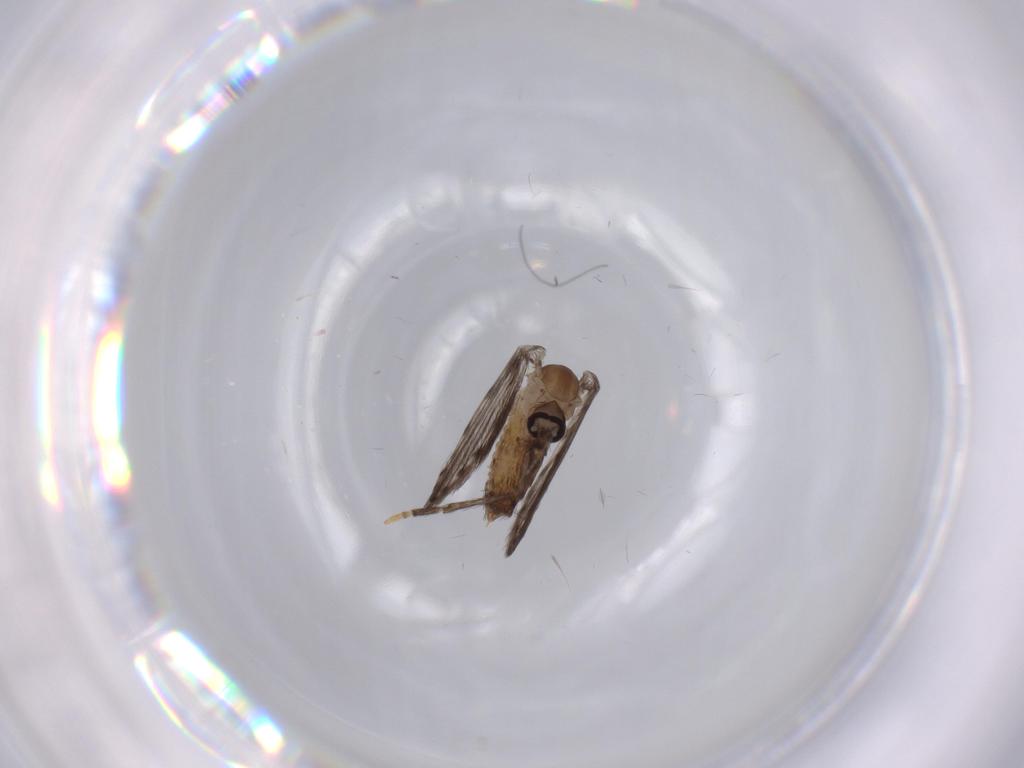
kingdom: Animalia
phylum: Arthropoda
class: Insecta
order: Diptera
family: Psychodidae
